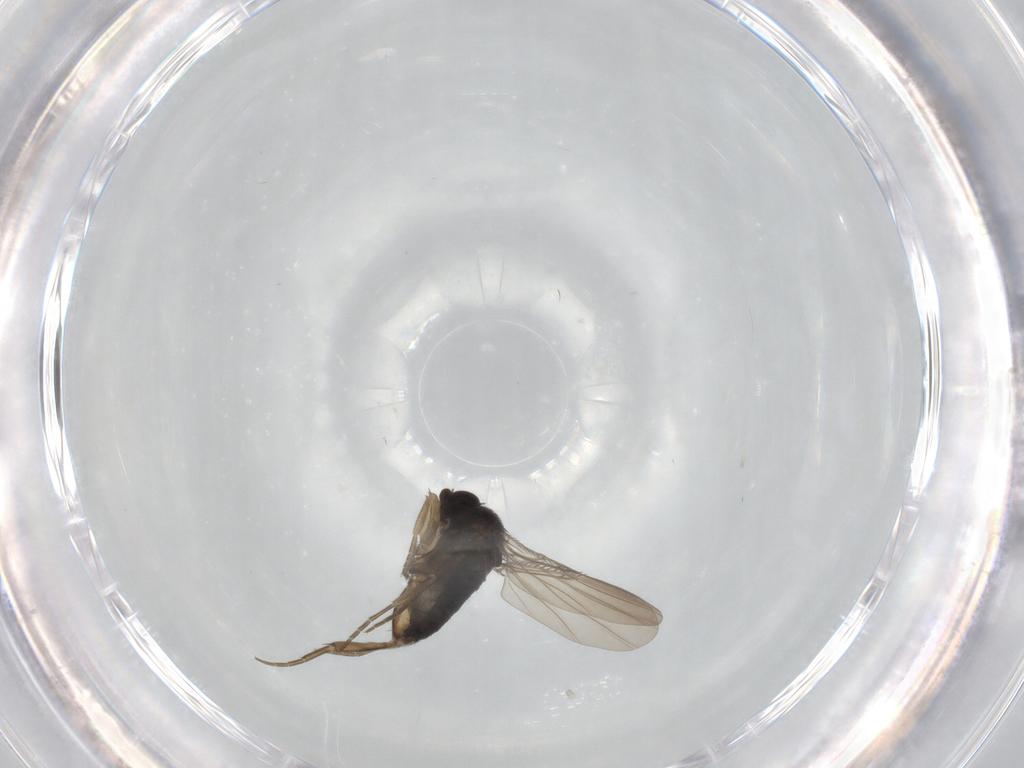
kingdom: Animalia
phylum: Arthropoda
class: Insecta
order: Diptera
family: Phoridae
